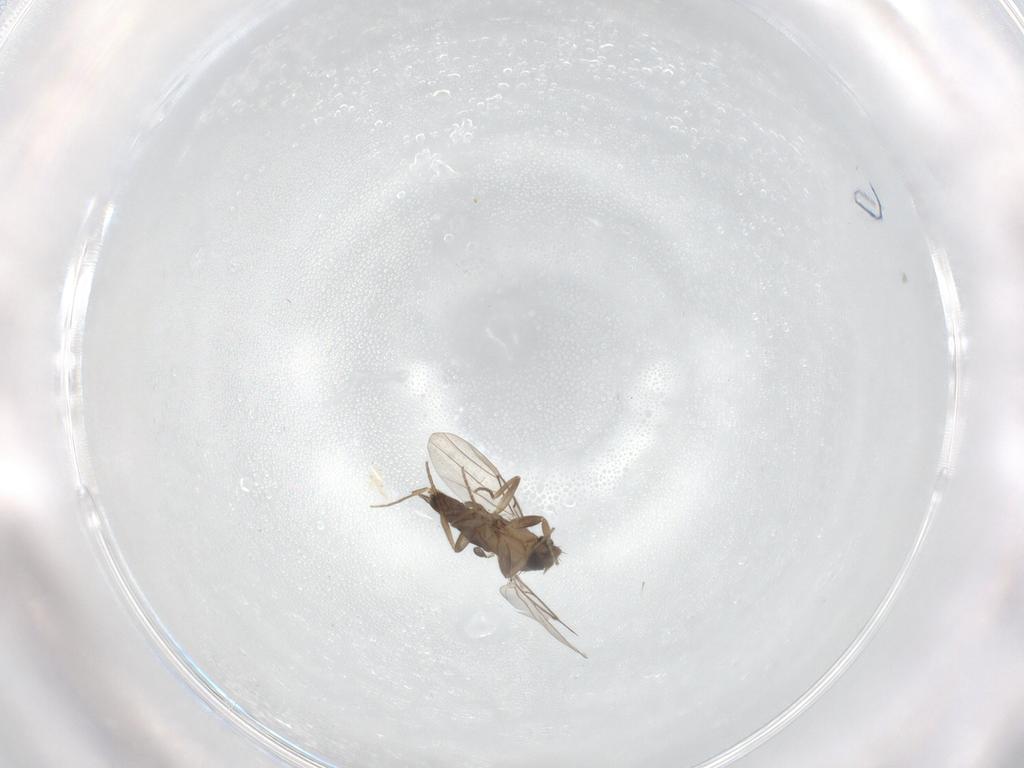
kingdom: Animalia
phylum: Arthropoda
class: Insecta
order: Diptera
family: Phoridae
